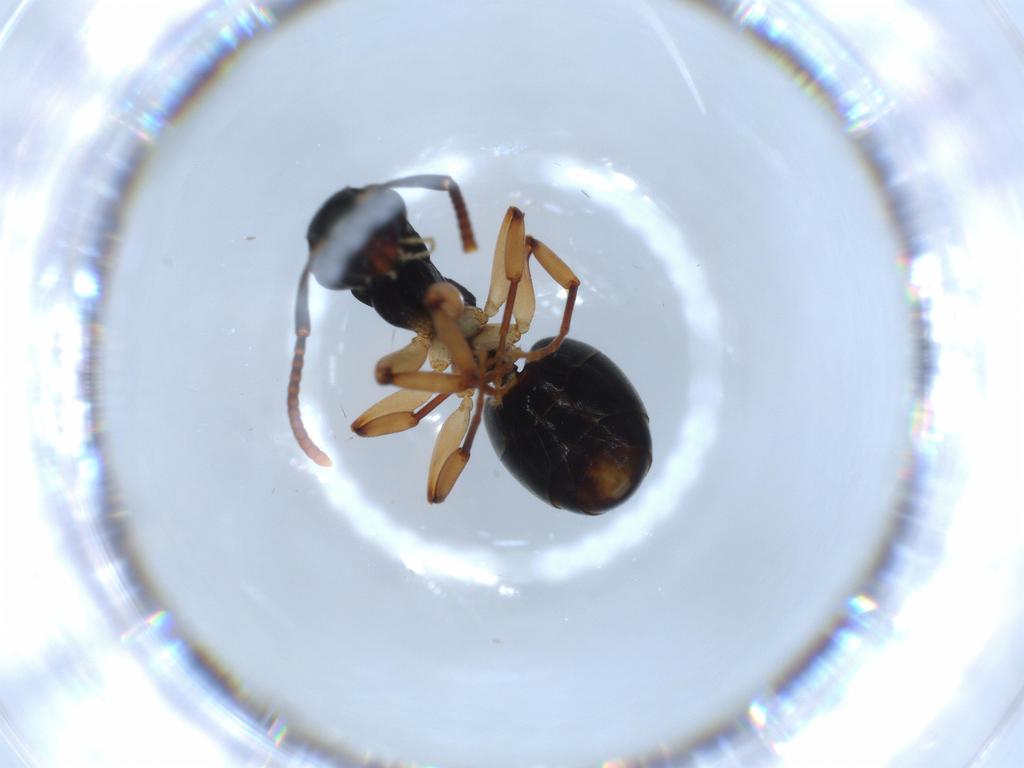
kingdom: Animalia
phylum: Arthropoda
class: Insecta
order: Hymenoptera
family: Formicidae
